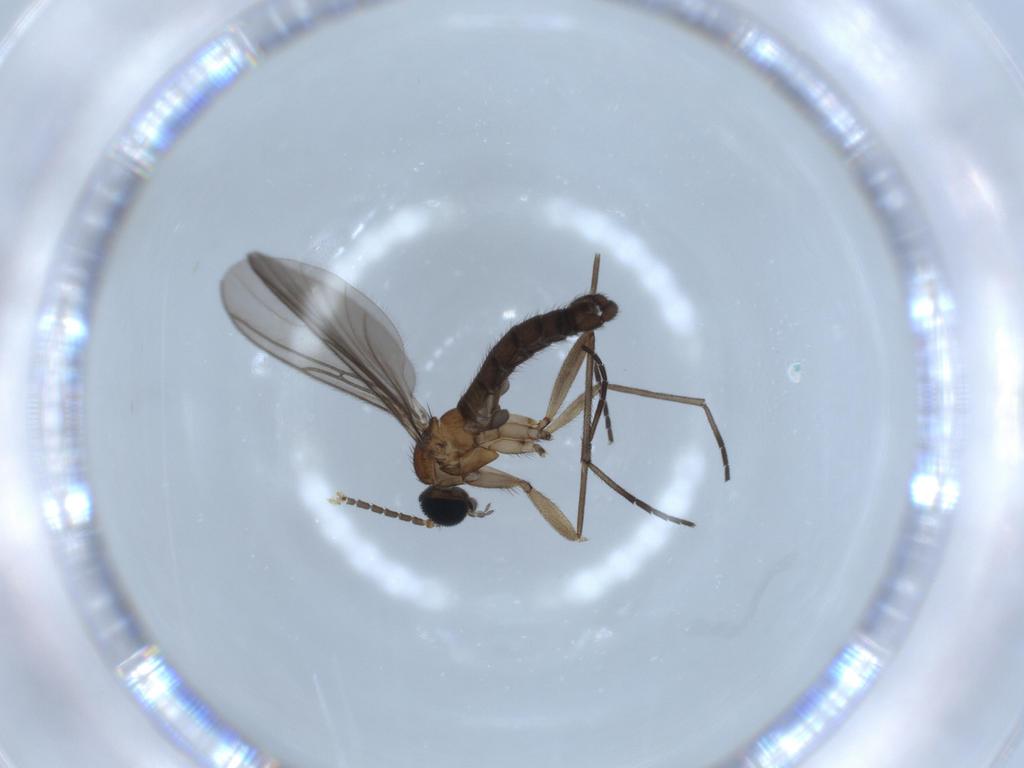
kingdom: Animalia
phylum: Arthropoda
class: Insecta
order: Diptera
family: Sciaridae
